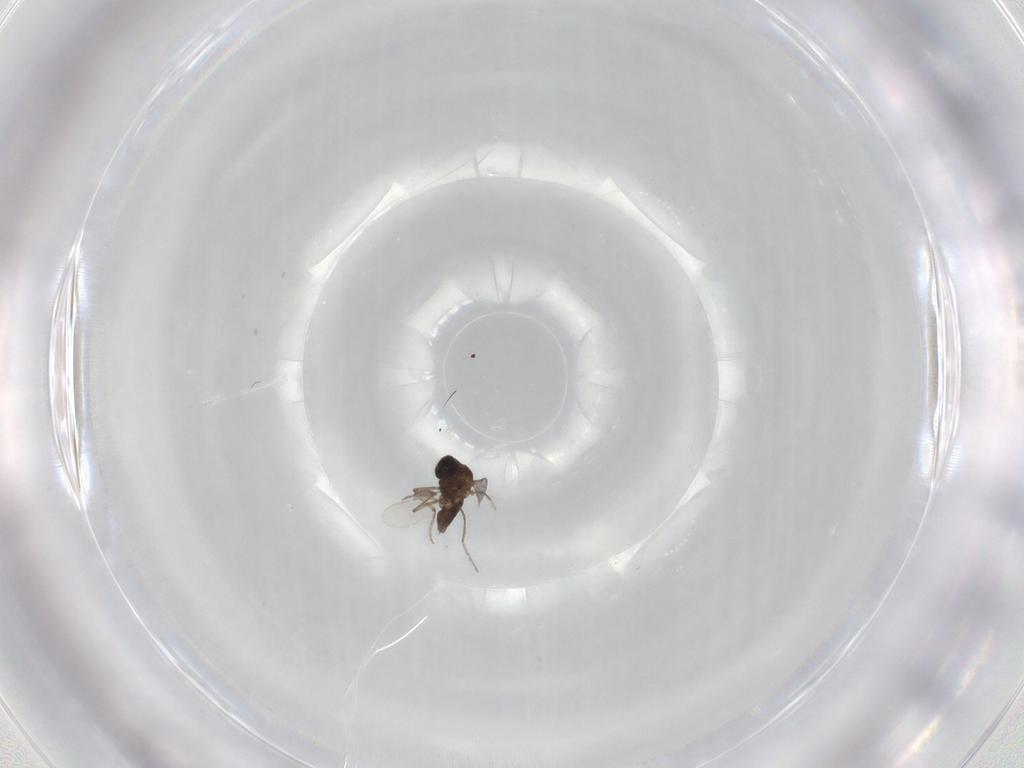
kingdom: Animalia
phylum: Arthropoda
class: Insecta
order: Diptera
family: Ceratopogonidae
